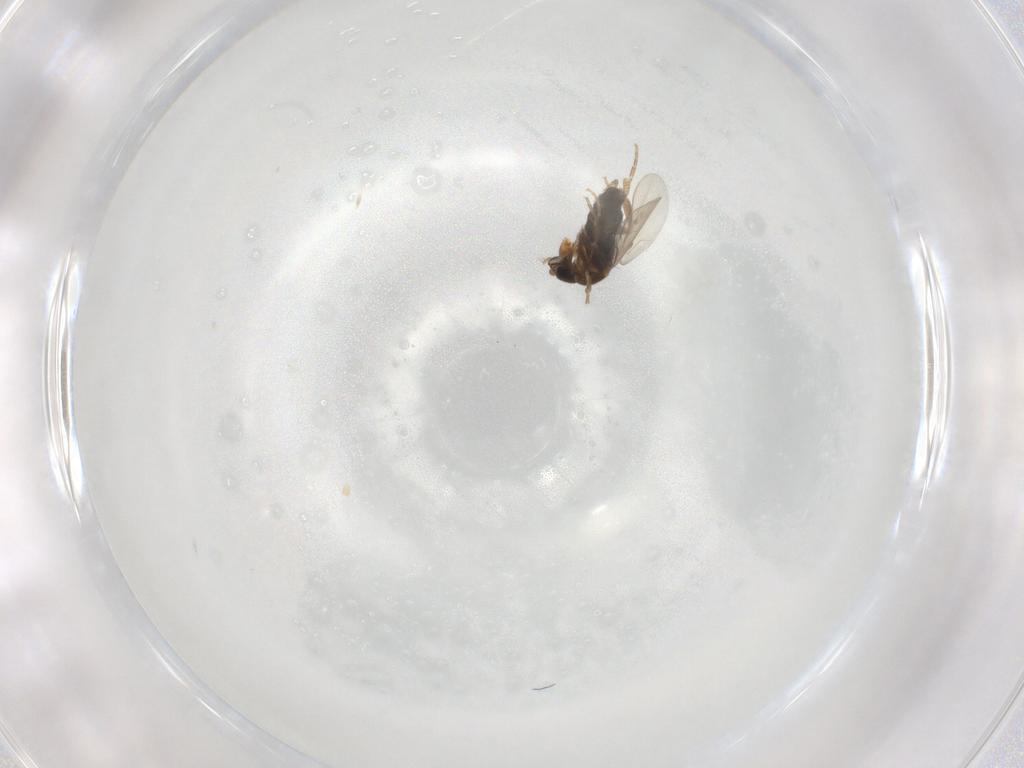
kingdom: Animalia
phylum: Arthropoda
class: Insecta
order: Diptera
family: Phoridae
